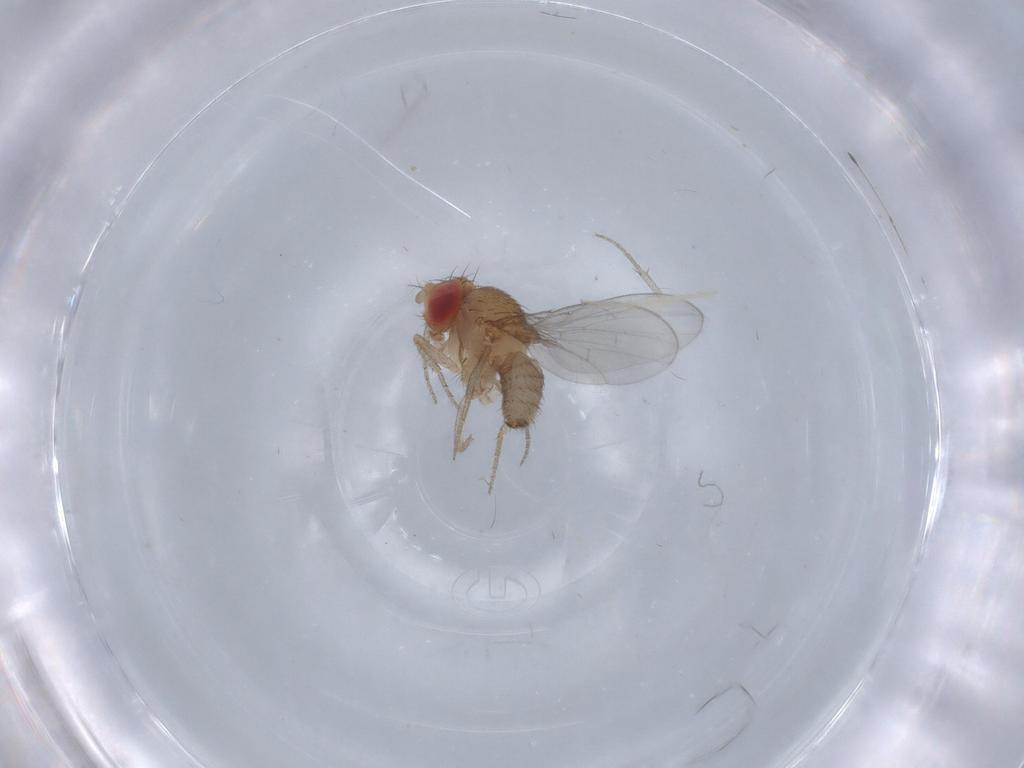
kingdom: Animalia
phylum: Arthropoda
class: Insecta
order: Diptera
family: Drosophilidae
